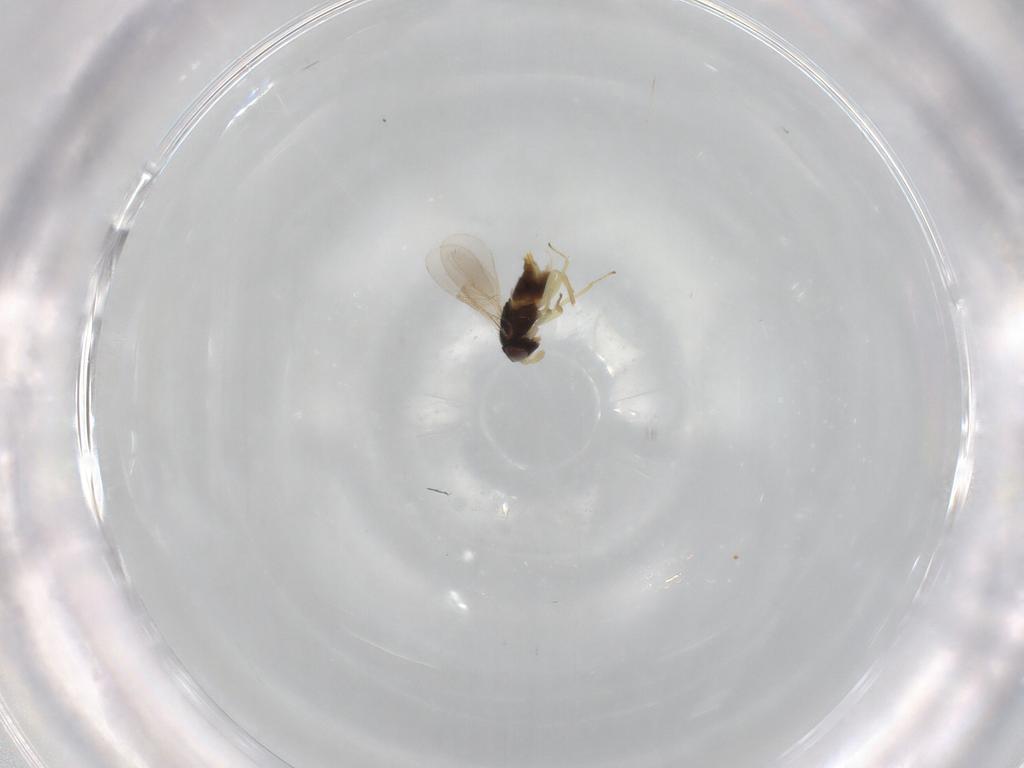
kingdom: Animalia
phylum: Arthropoda
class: Insecta
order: Hymenoptera
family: Aphelinidae
